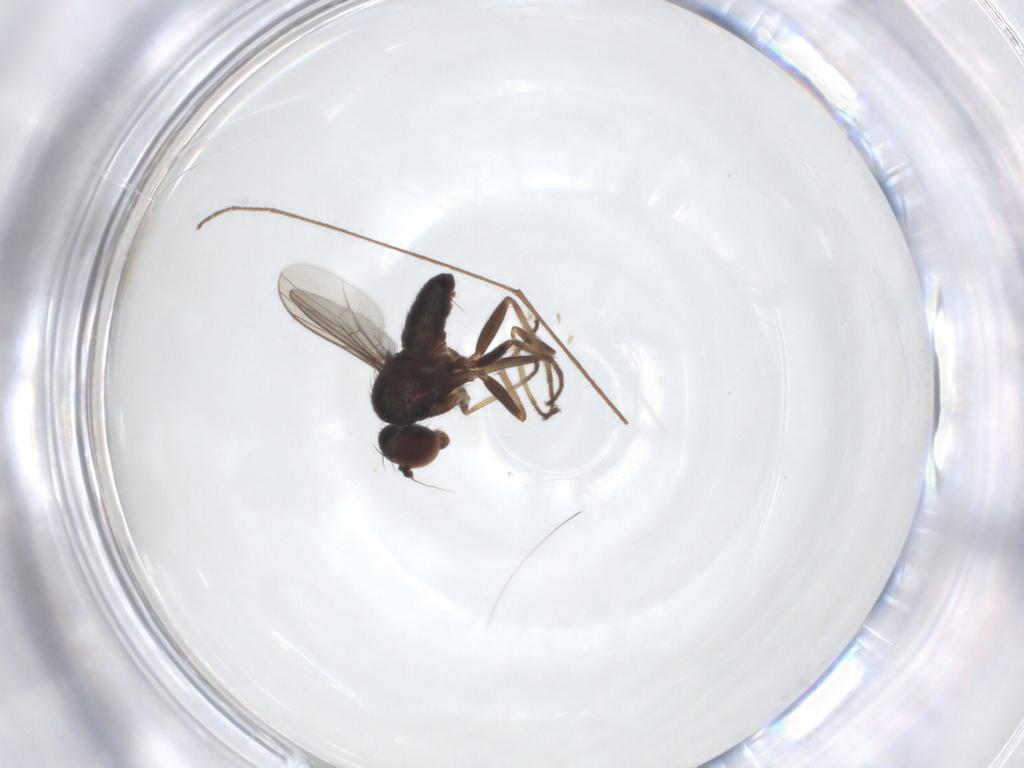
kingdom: Animalia
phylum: Arthropoda
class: Insecta
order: Diptera
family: Dolichopodidae
